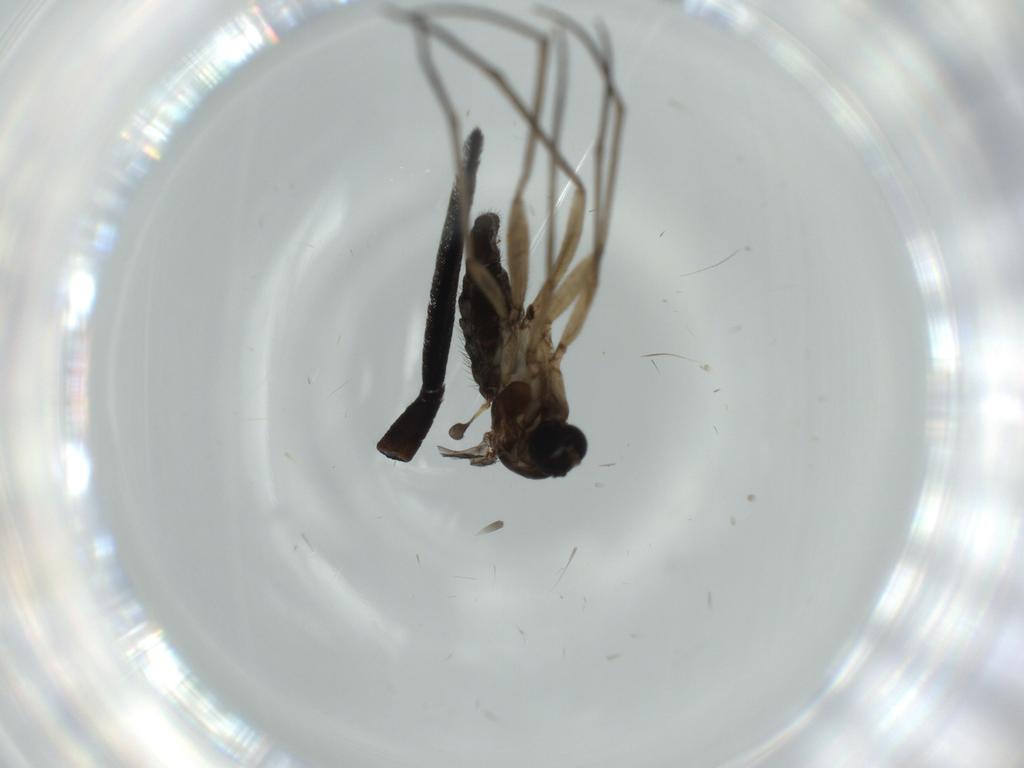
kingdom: Animalia
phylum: Arthropoda
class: Insecta
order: Diptera
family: Sciaridae
